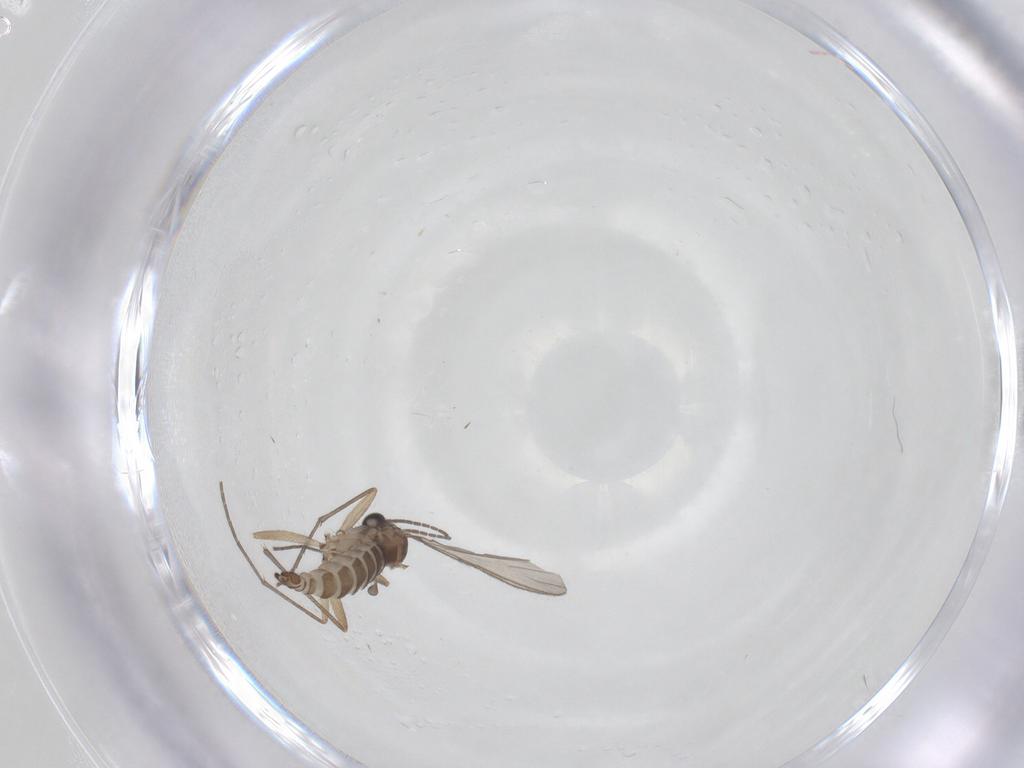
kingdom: Animalia
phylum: Arthropoda
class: Insecta
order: Diptera
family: Sciaridae
